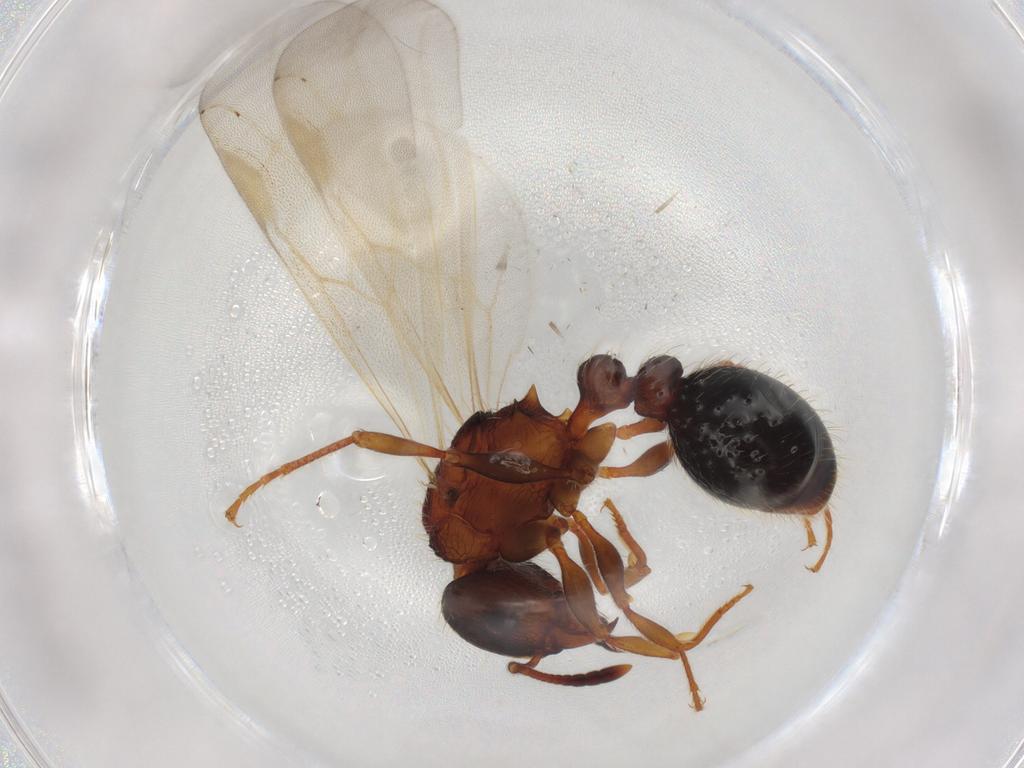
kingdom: Animalia
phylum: Arthropoda
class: Insecta
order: Hymenoptera
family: Formicidae
